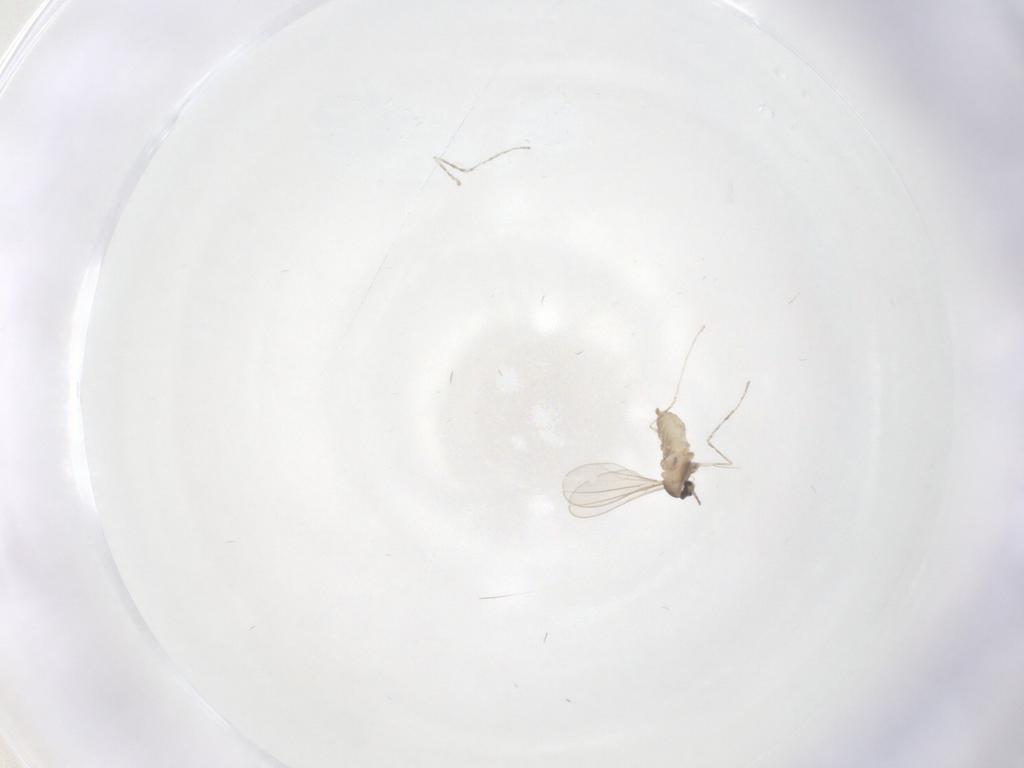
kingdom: Animalia
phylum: Arthropoda
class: Insecta
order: Diptera
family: Cecidomyiidae
